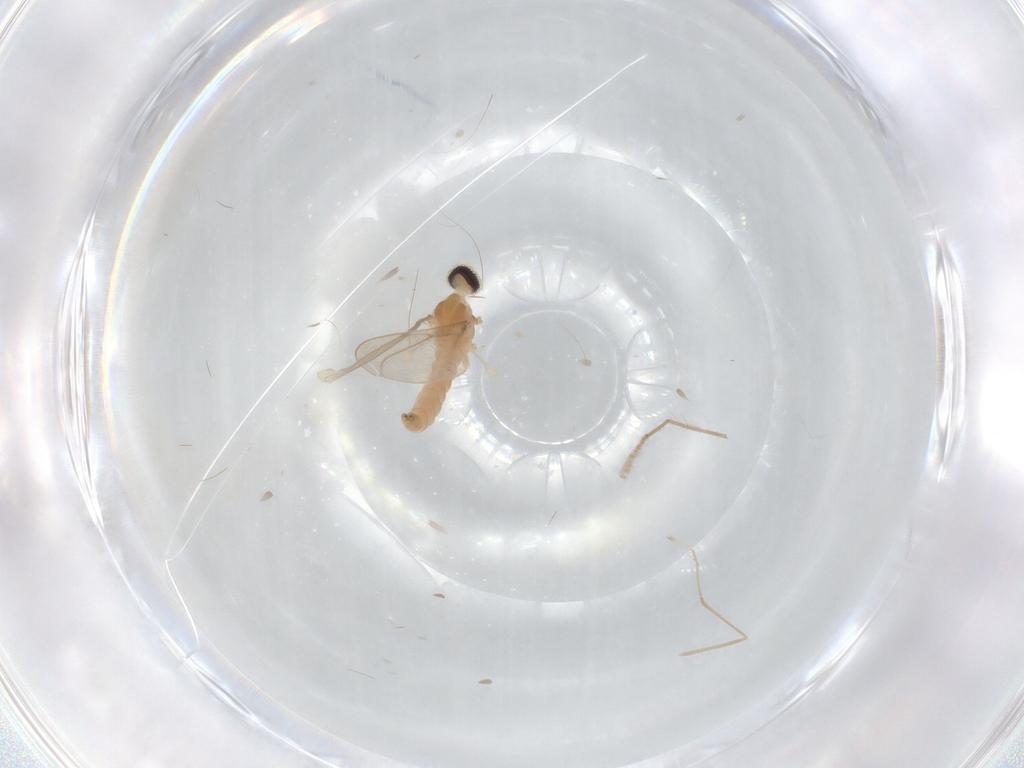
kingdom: Animalia
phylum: Arthropoda
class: Insecta
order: Diptera
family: Cecidomyiidae
